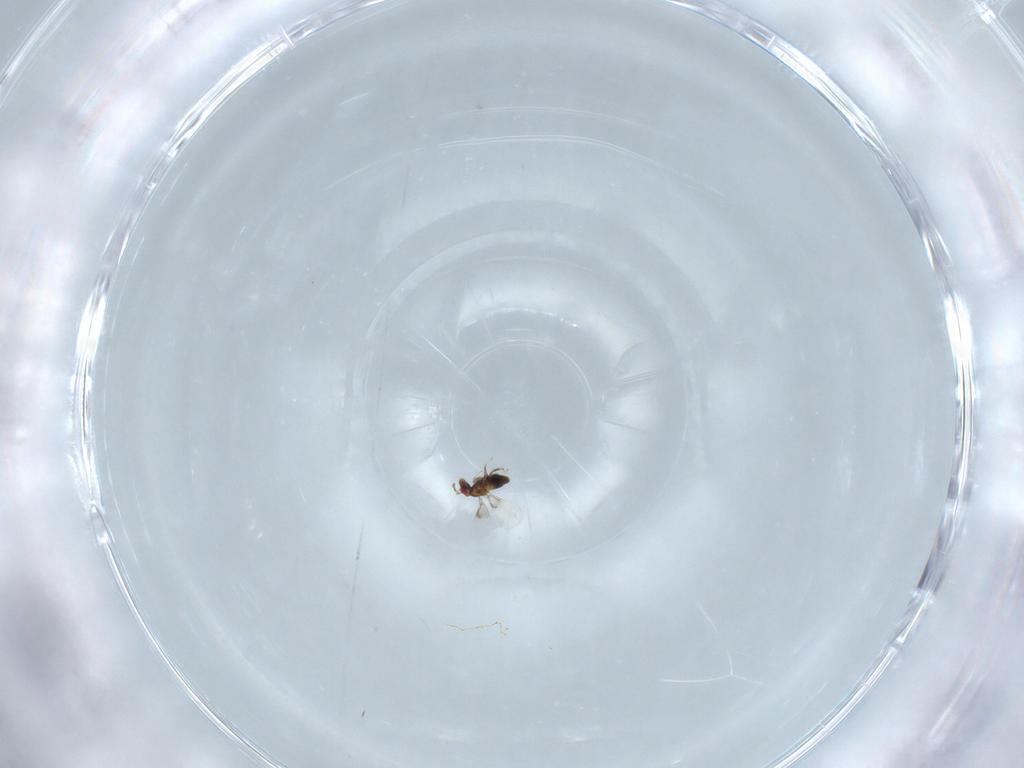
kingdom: Animalia
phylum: Arthropoda
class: Insecta
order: Hymenoptera
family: Trichogrammatidae
